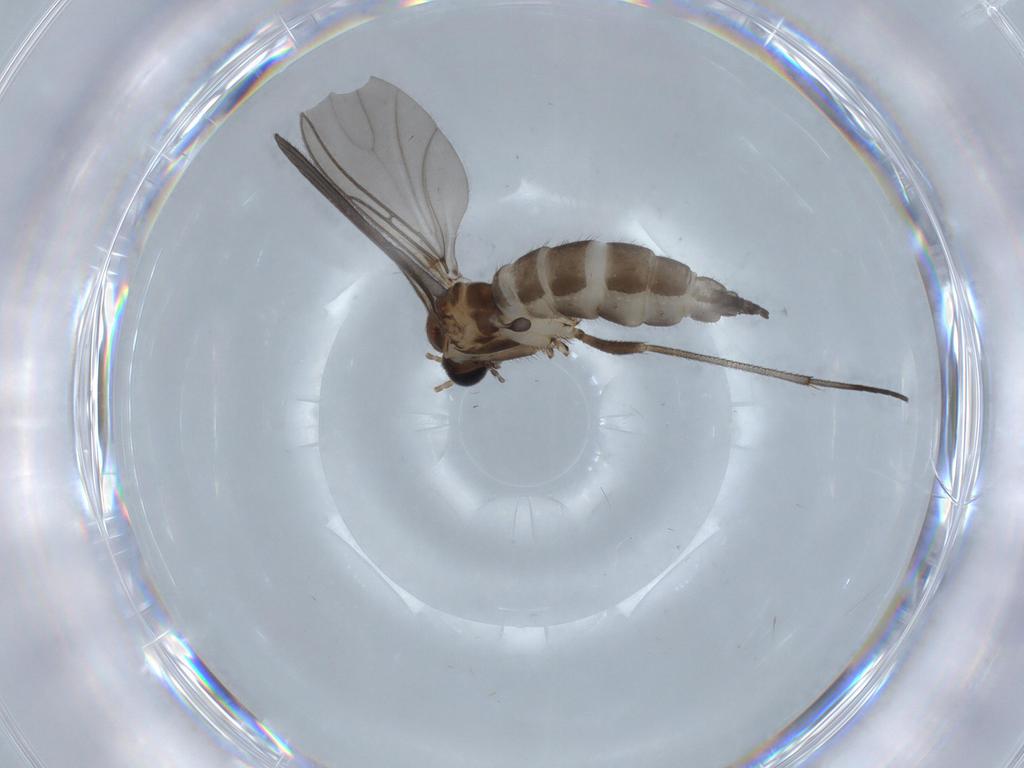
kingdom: Animalia
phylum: Arthropoda
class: Insecta
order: Diptera
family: Sciaridae
